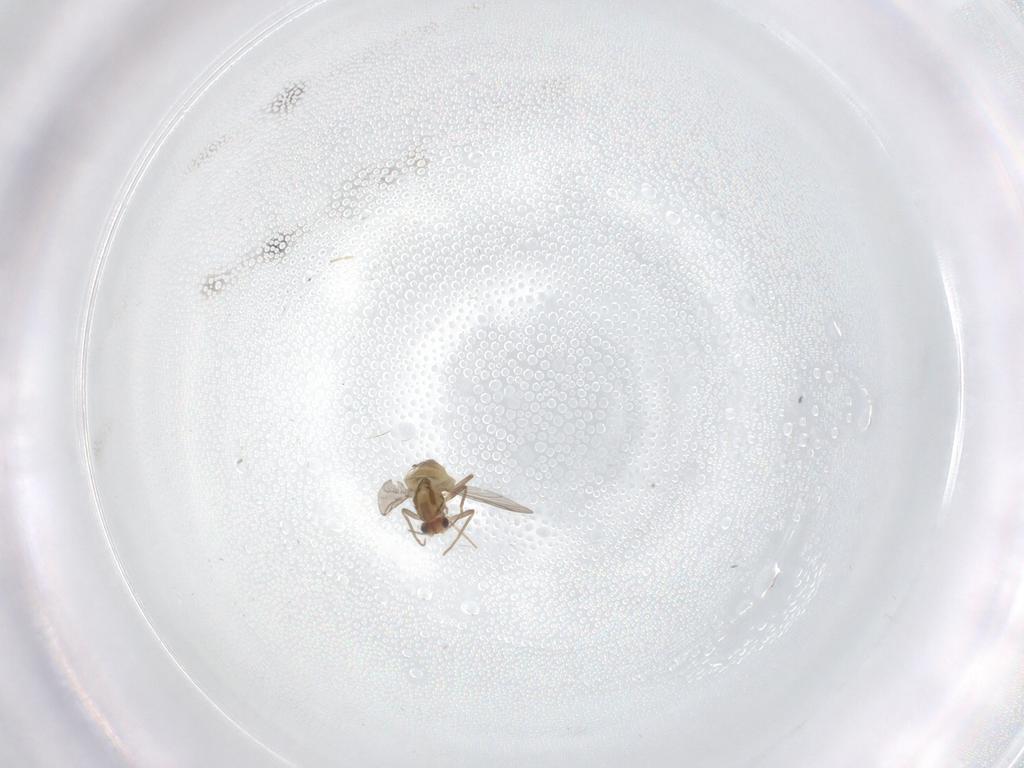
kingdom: Animalia
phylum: Arthropoda
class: Insecta
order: Diptera
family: Chironomidae
